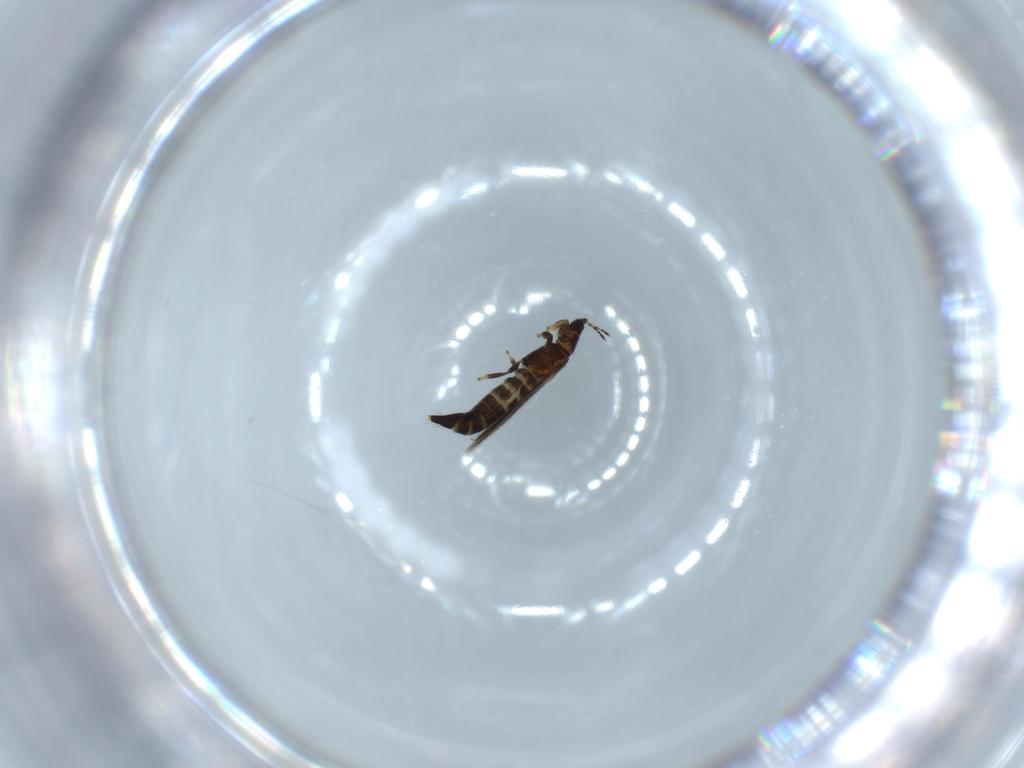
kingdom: Animalia
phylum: Arthropoda
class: Insecta
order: Thysanoptera
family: Thripidae
